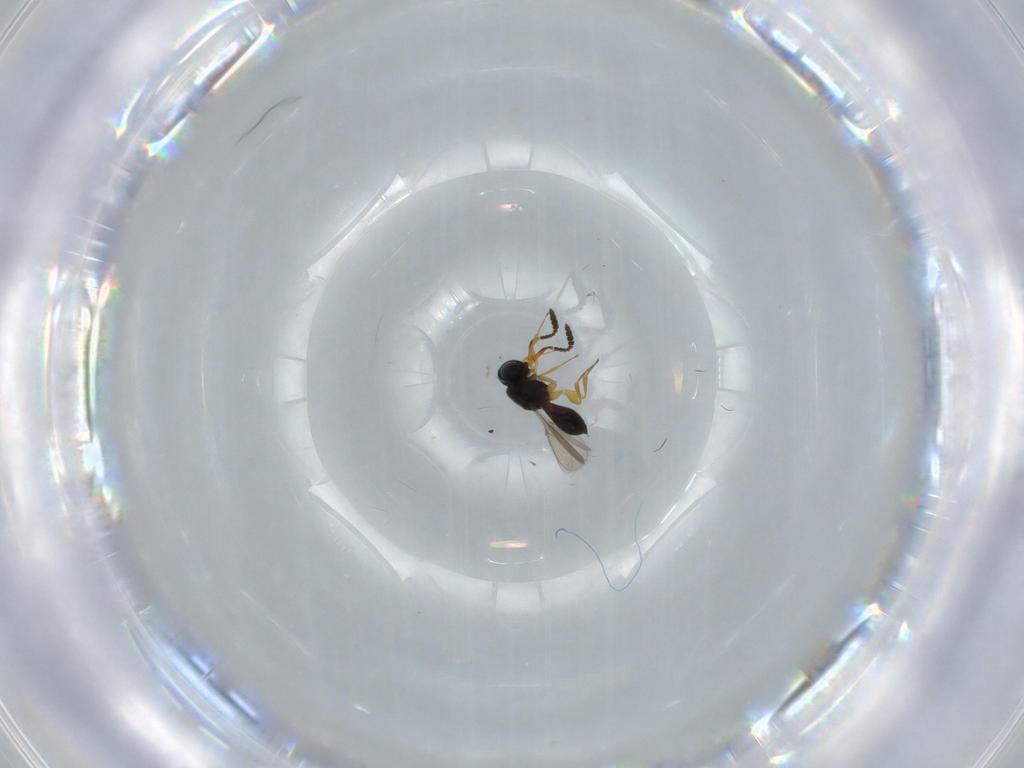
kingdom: Animalia
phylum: Arthropoda
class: Insecta
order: Hymenoptera
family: Scelionidae
